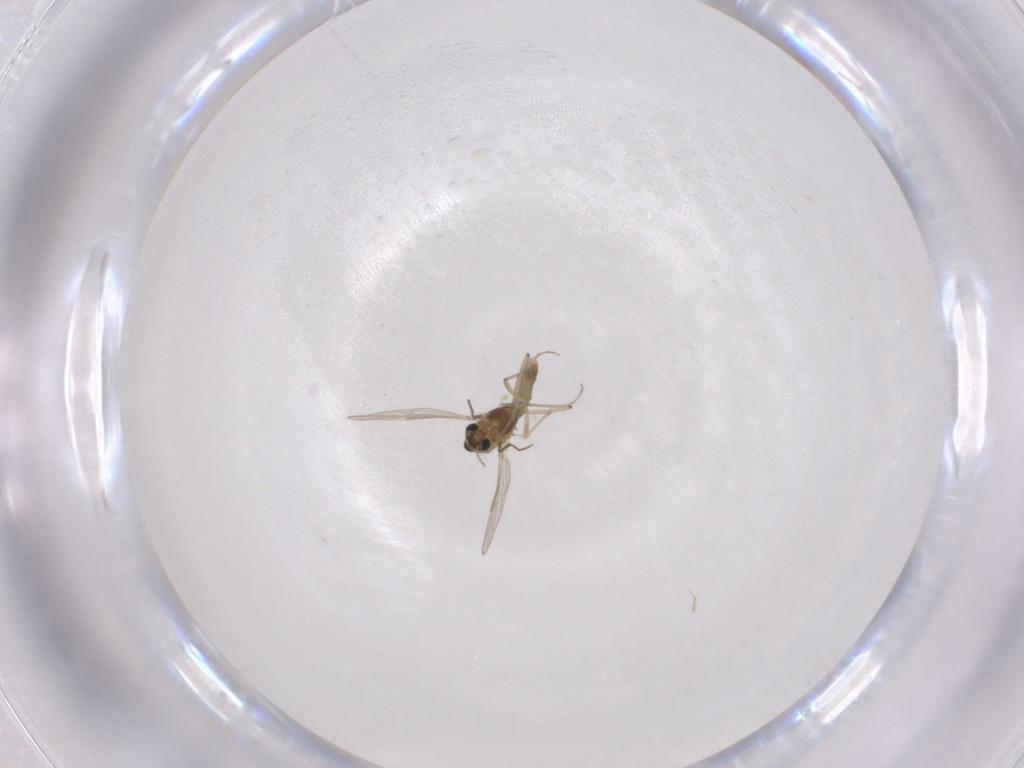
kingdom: Animalia
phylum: Arthropoda
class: Insecta
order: Diptera
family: Chironomidae
